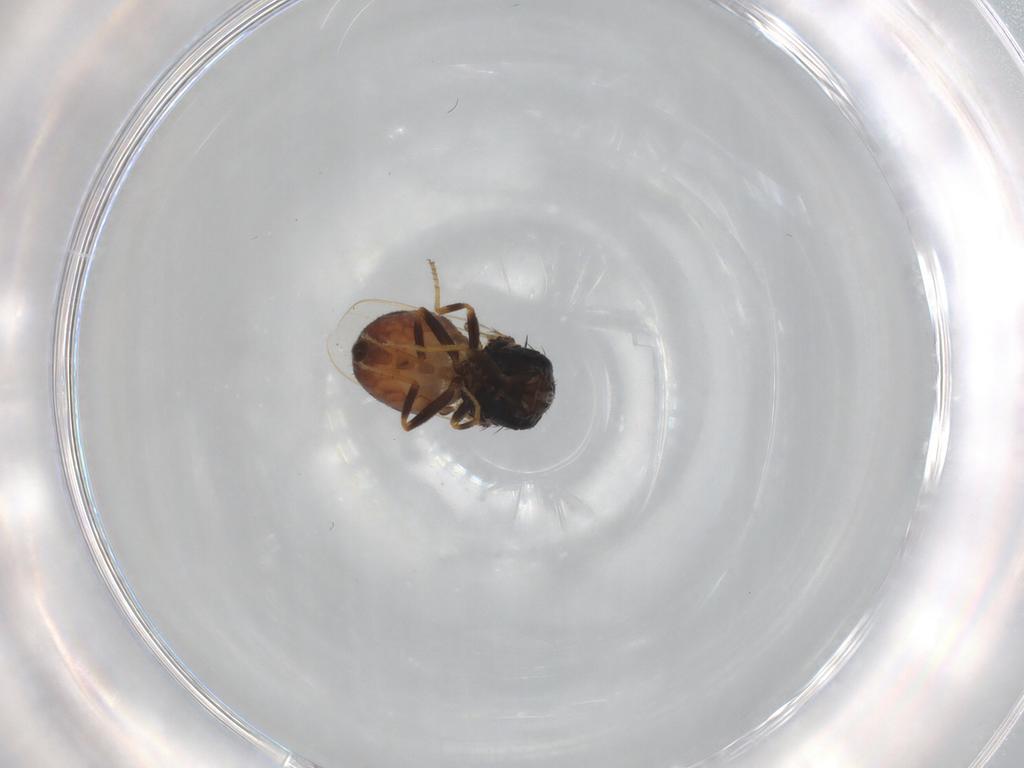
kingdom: Animalia
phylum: Arthropoda
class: Insecta
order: Diptera
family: Chloropidae
